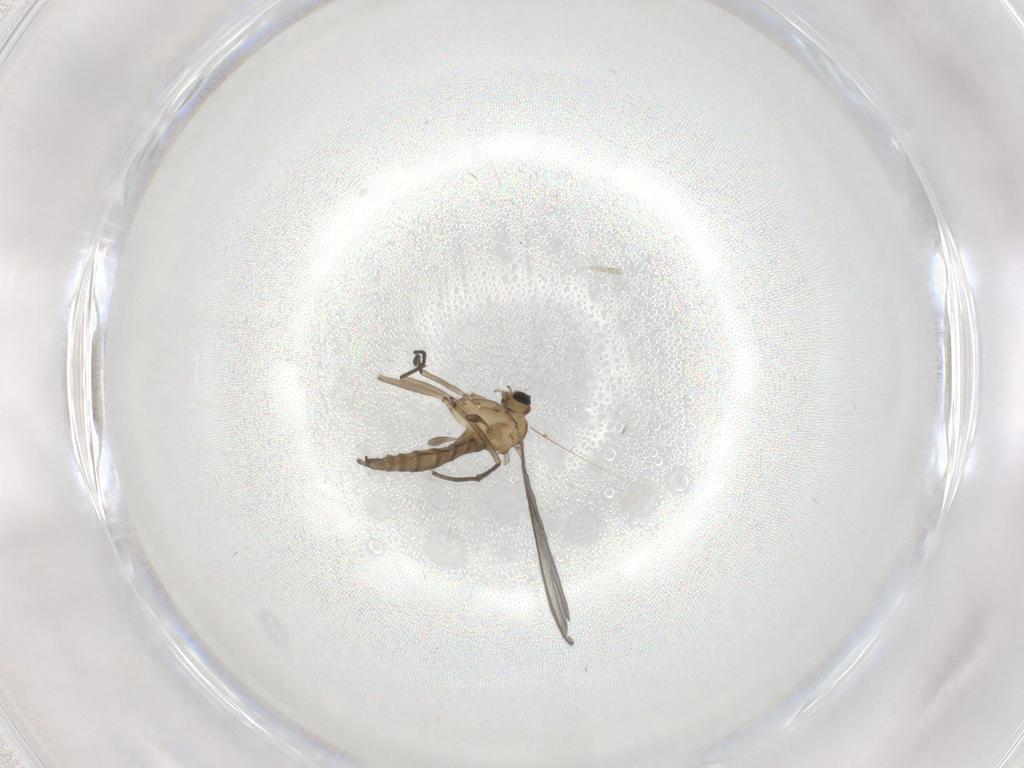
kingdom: Animalia
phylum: Arthropoda
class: Insecta
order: Diptera
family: Sciaridae
